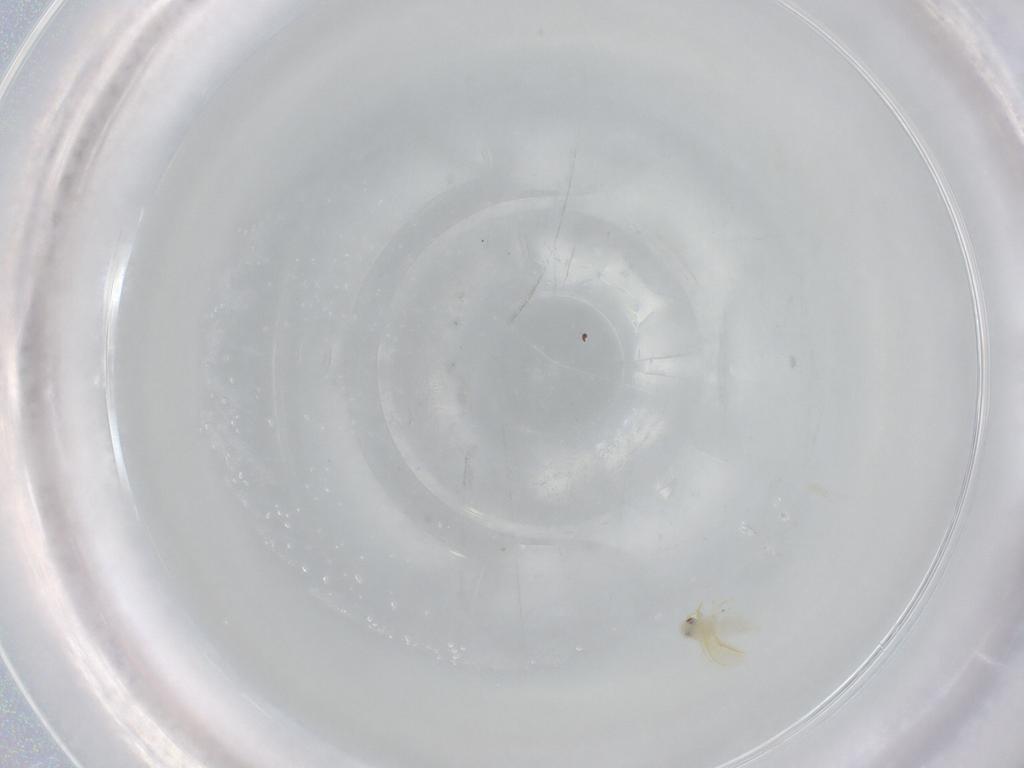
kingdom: Animalia
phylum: Arthropoda
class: Insecta
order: Hemiptera
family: Aleyrodidae
